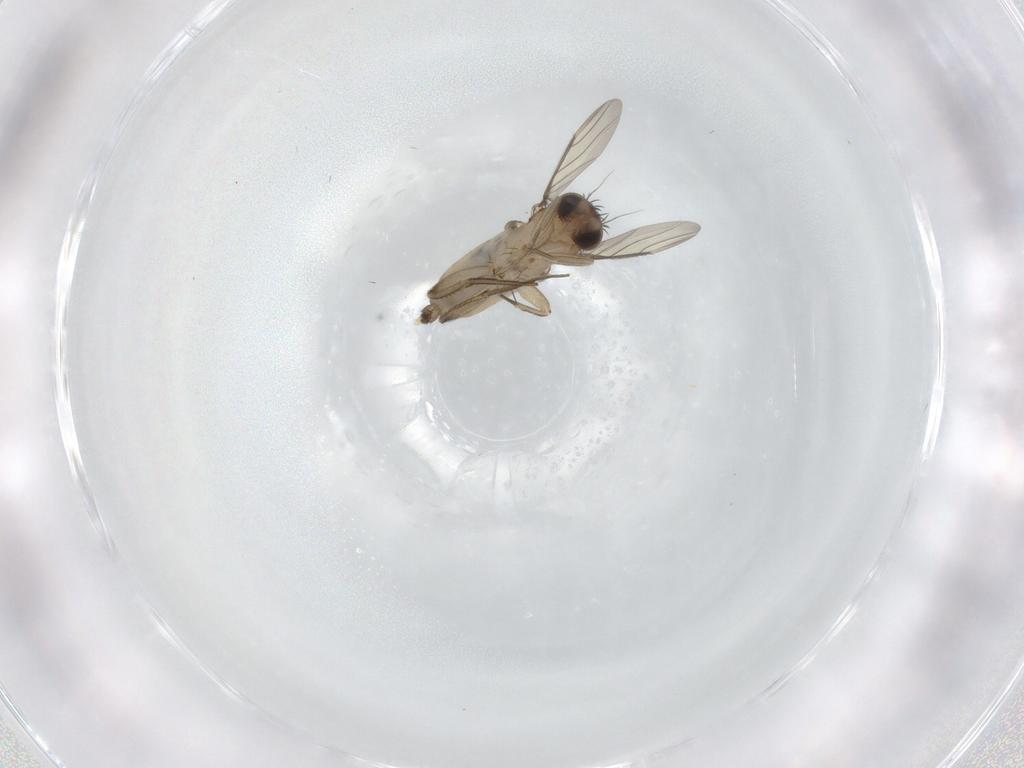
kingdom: Animalia
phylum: Arthropoda
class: Insecta
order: Diptera
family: Phoridae
